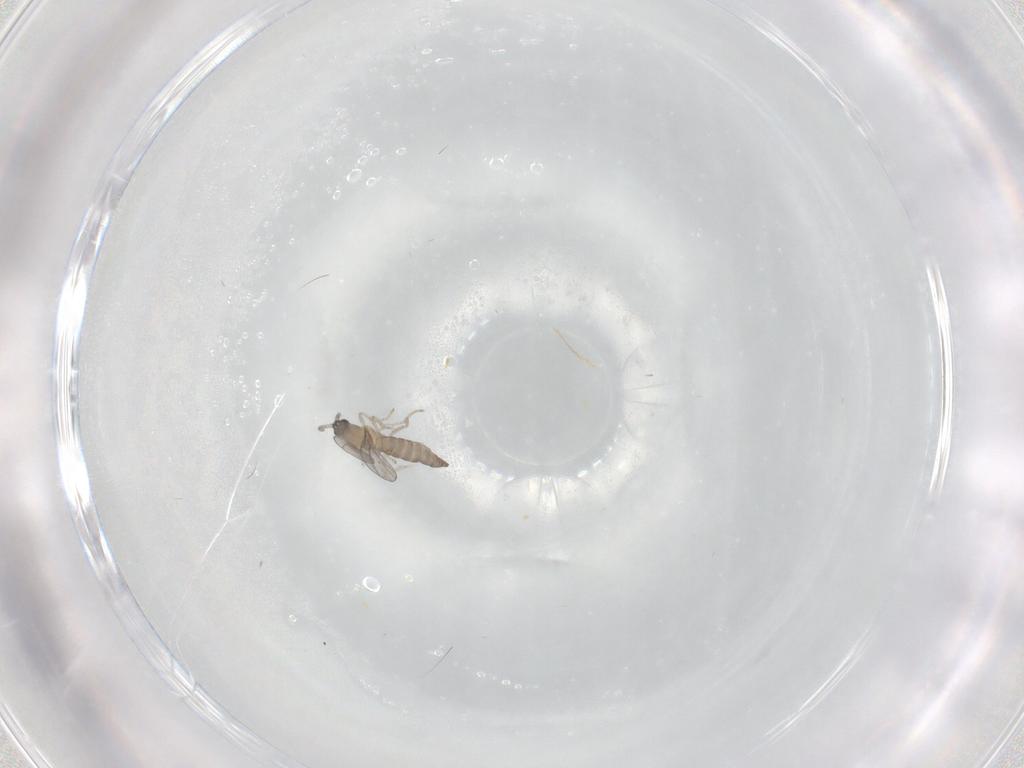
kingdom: Animalia
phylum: Arthropoda
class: Insecta
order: Diptera
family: Cecidomyiidae
